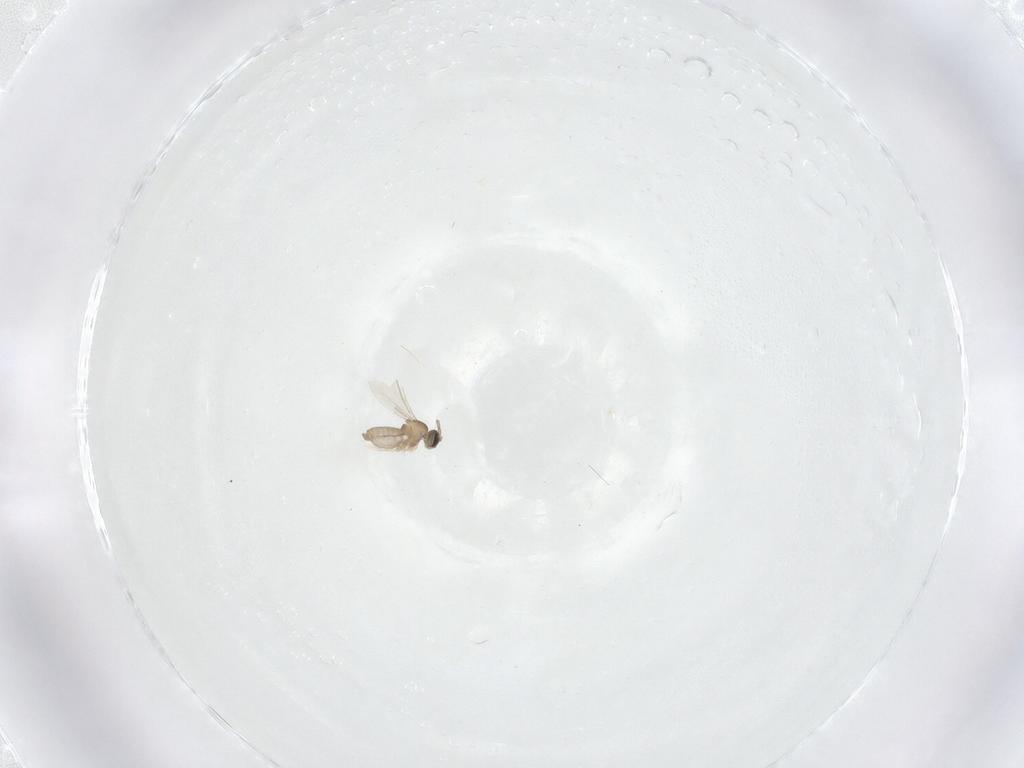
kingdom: Animalia
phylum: Arthropoda
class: Insecta
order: Diptera
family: Cecidomyiidae
